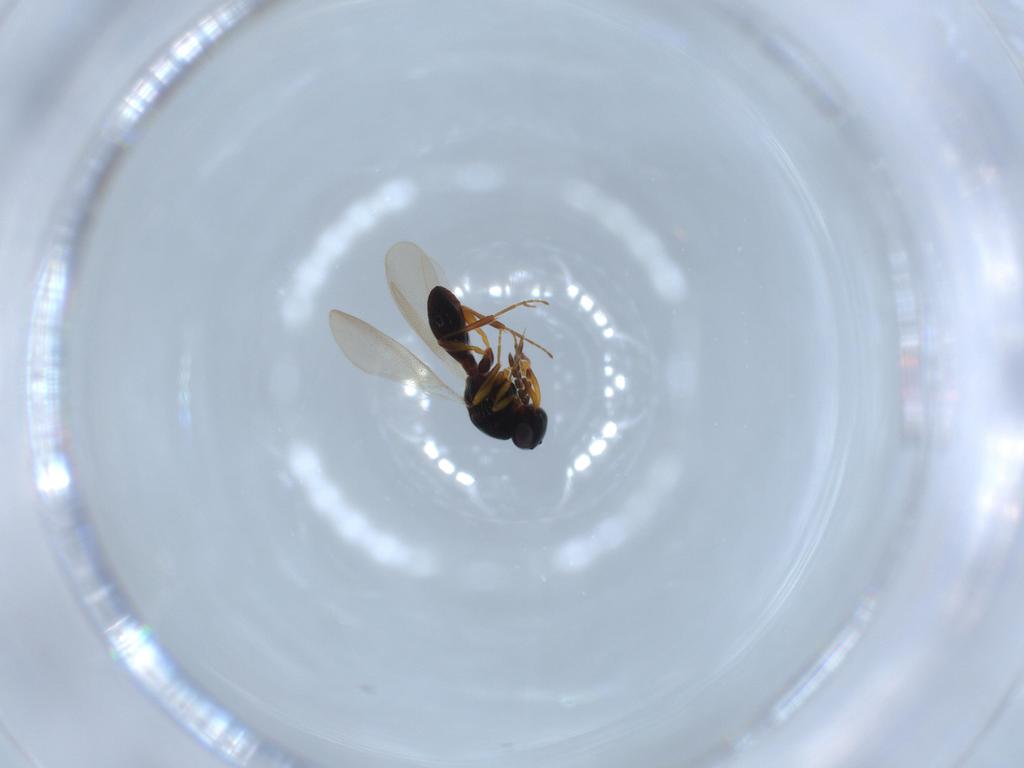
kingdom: Animalia
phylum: Arthropoda
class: Insecta
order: Hymenoptera
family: Platygastridae
